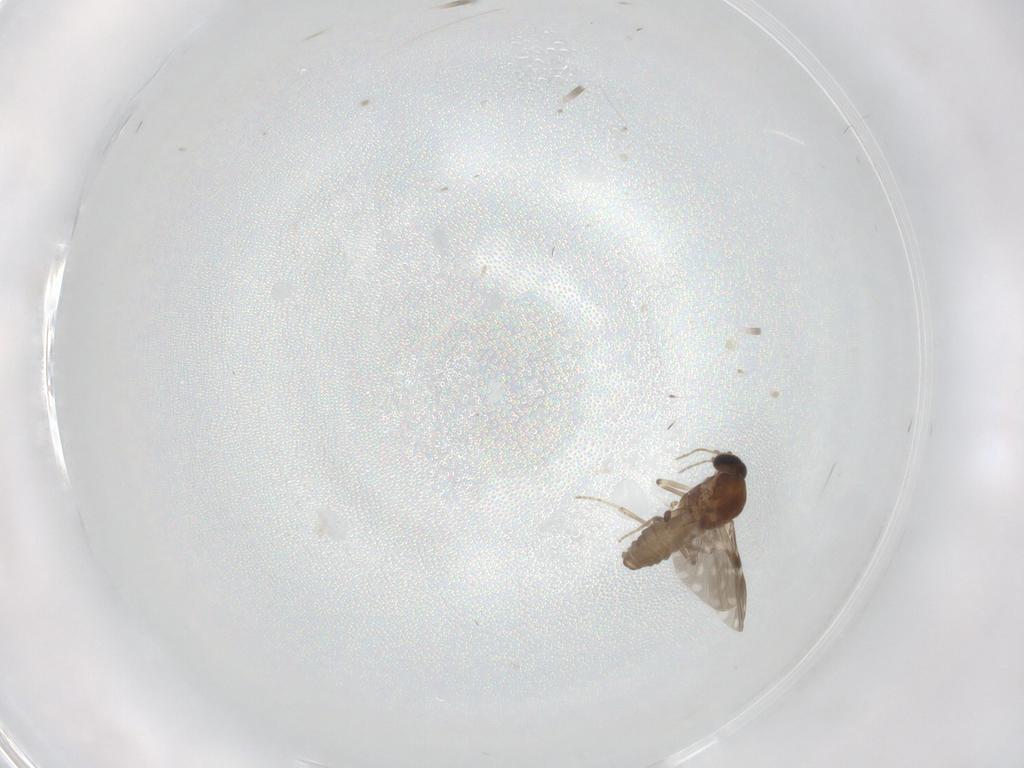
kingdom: Animalia
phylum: Arthropoda
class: Insecta
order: Diptera
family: Ceratopogonidae
